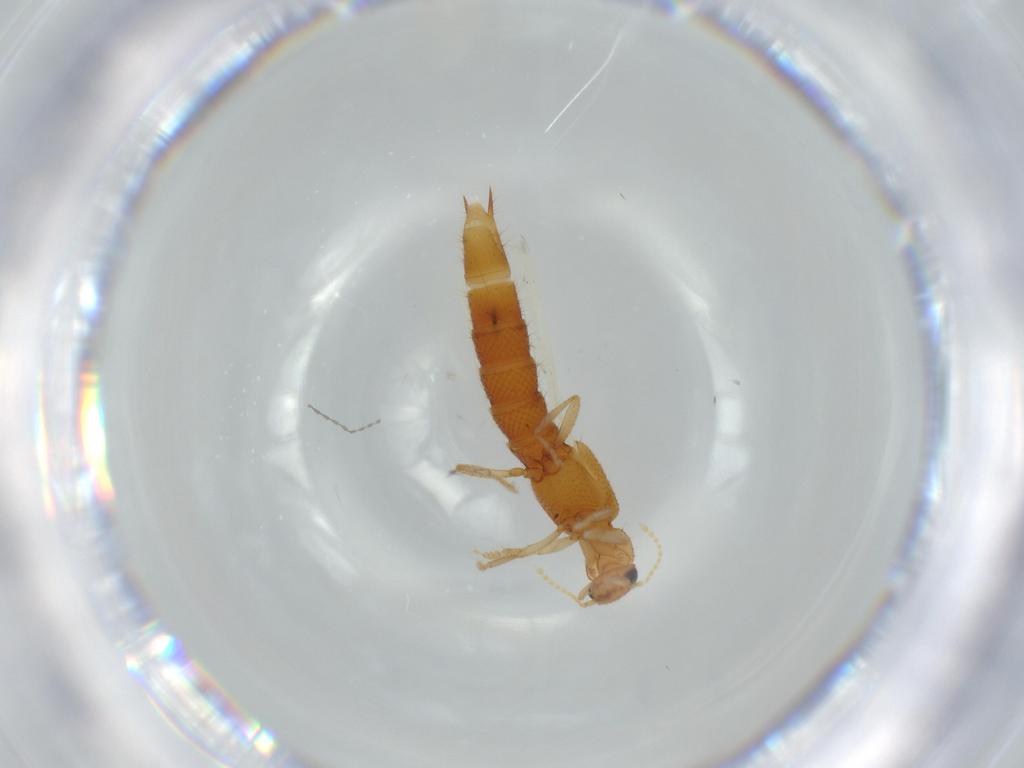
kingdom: Animalia
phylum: Arthropoda
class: Insecta
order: Coleoptera
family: Staphylinidae
